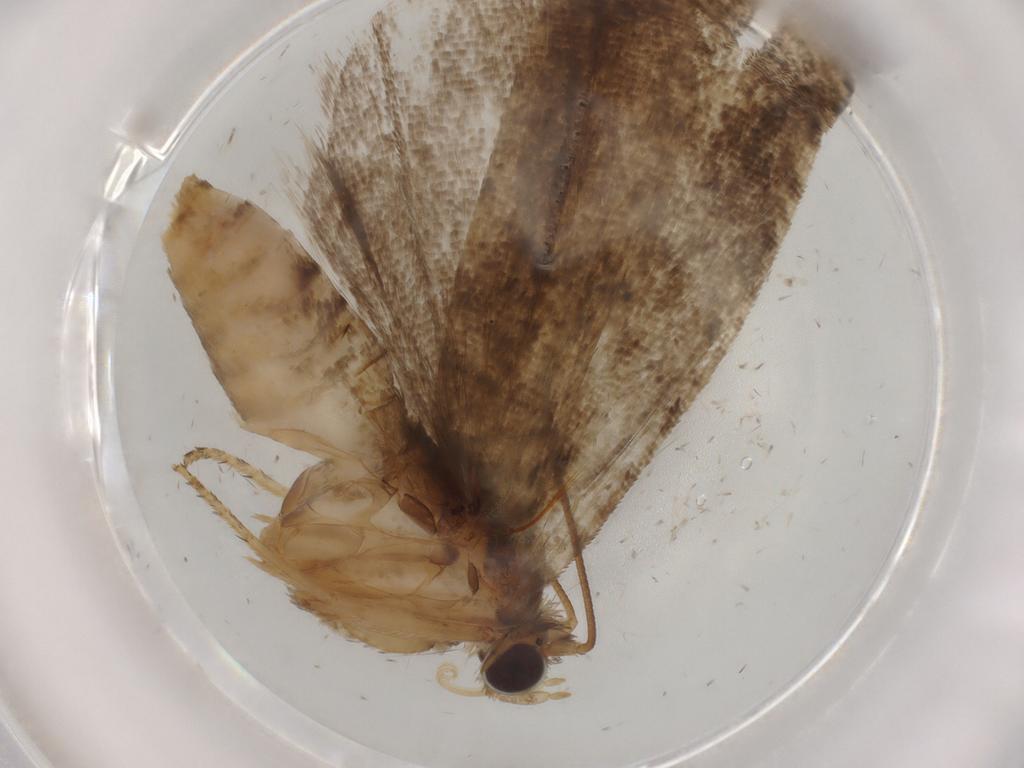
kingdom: Animalia
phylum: Arthropoda
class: Insecta
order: Lepidoptera
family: Tortricidae
